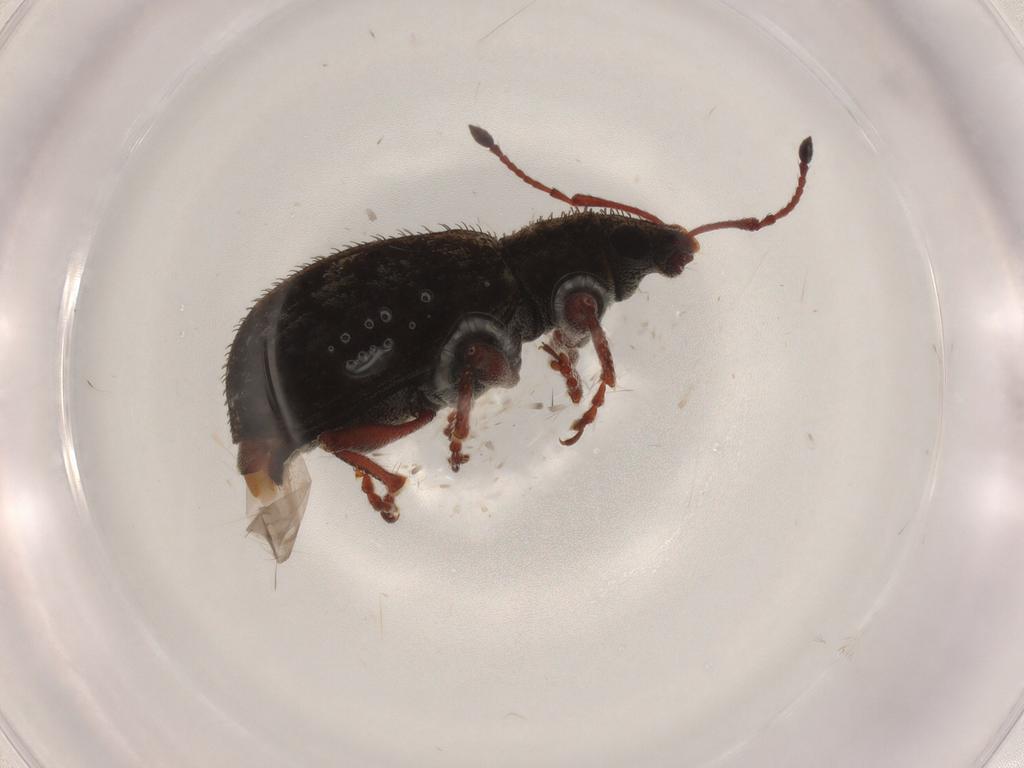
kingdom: Animalia
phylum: Arthropoda
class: Insecta
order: Coleoptera
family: Curculionidae
